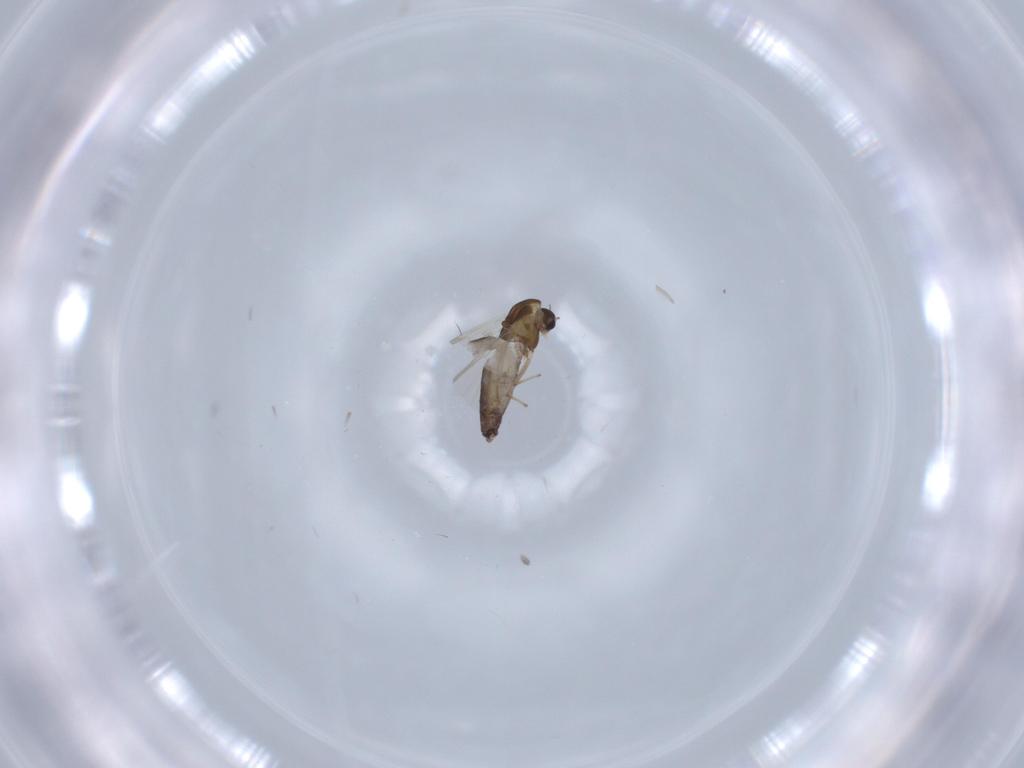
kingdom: Animalia
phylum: Arthropoda
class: Insecta
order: Diptera
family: Chironomidae
